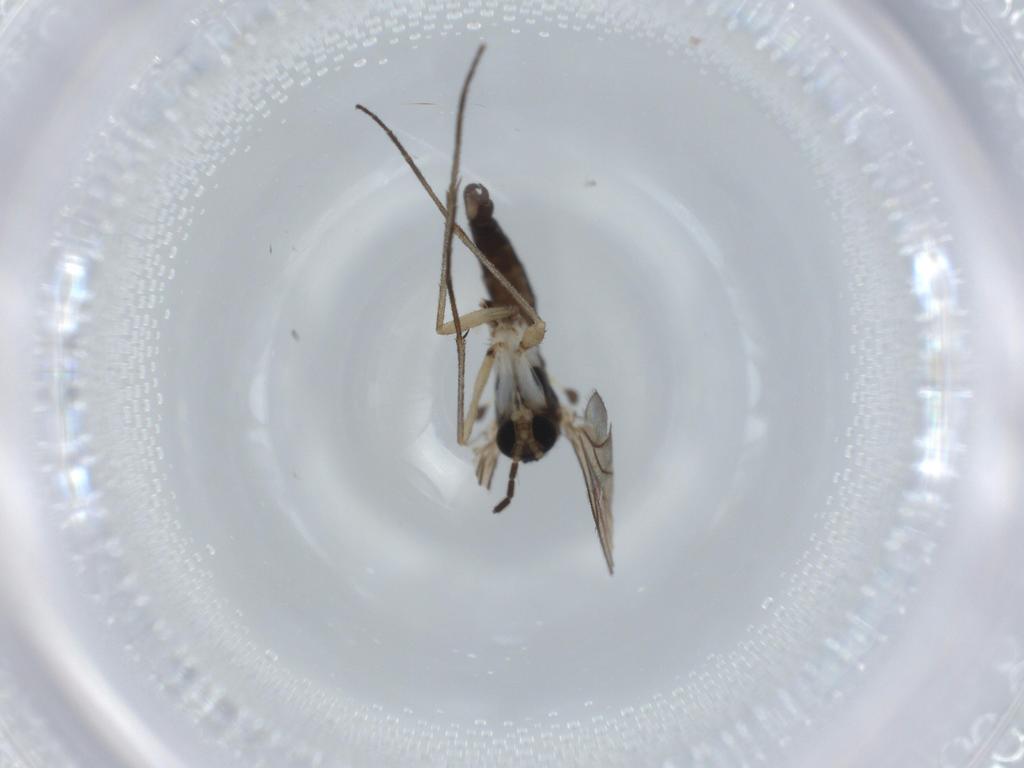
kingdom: Animalia
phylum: Arthropoda
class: Insecta
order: Diptera
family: Sciaridae
